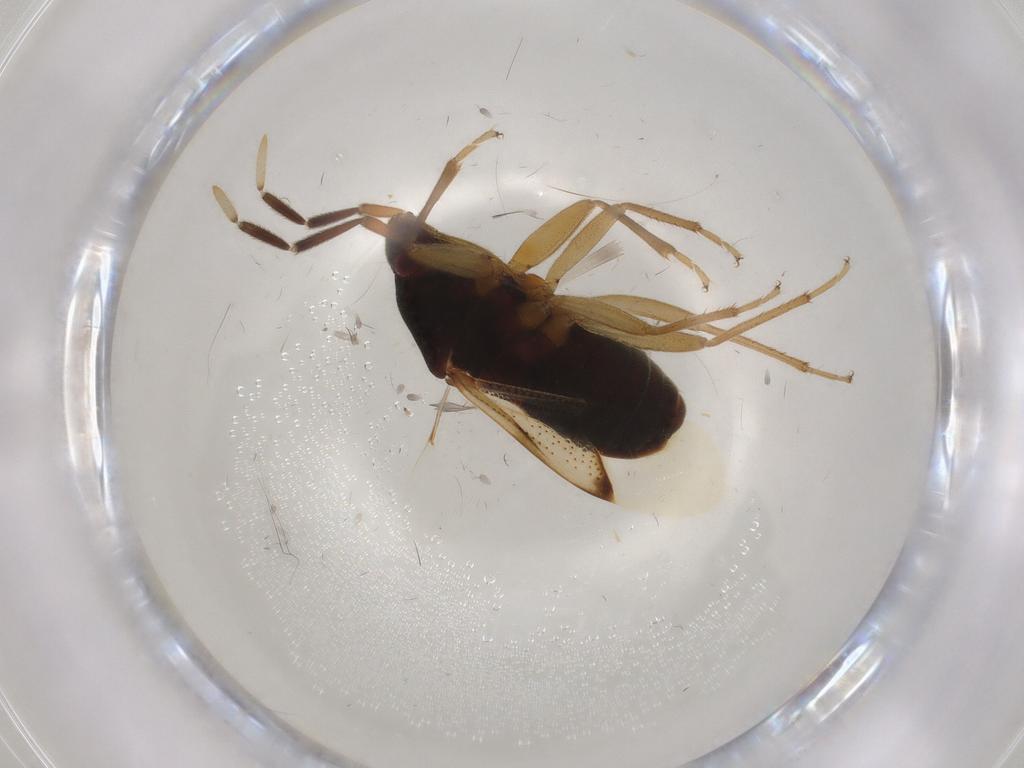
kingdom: Animalia
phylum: Arthropoda
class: Insecta
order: Hemiptera
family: Rhyparochromidae
